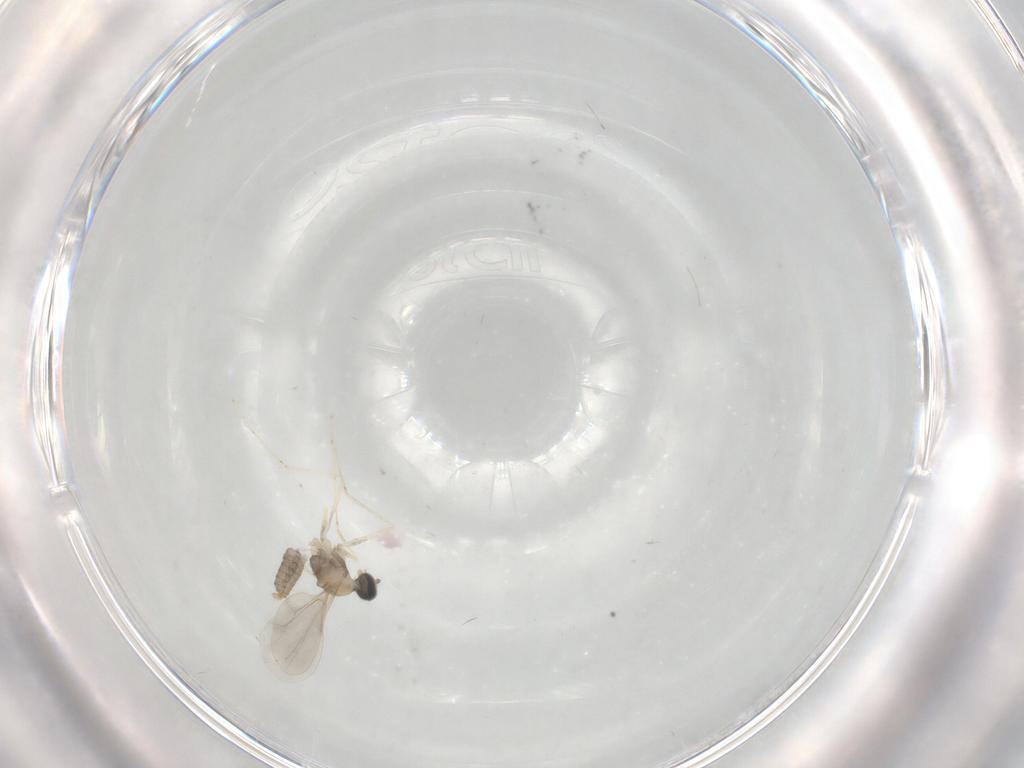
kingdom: Animalia
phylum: Arthropoda
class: Insecta
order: Diptera
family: Cecidomyiidae
